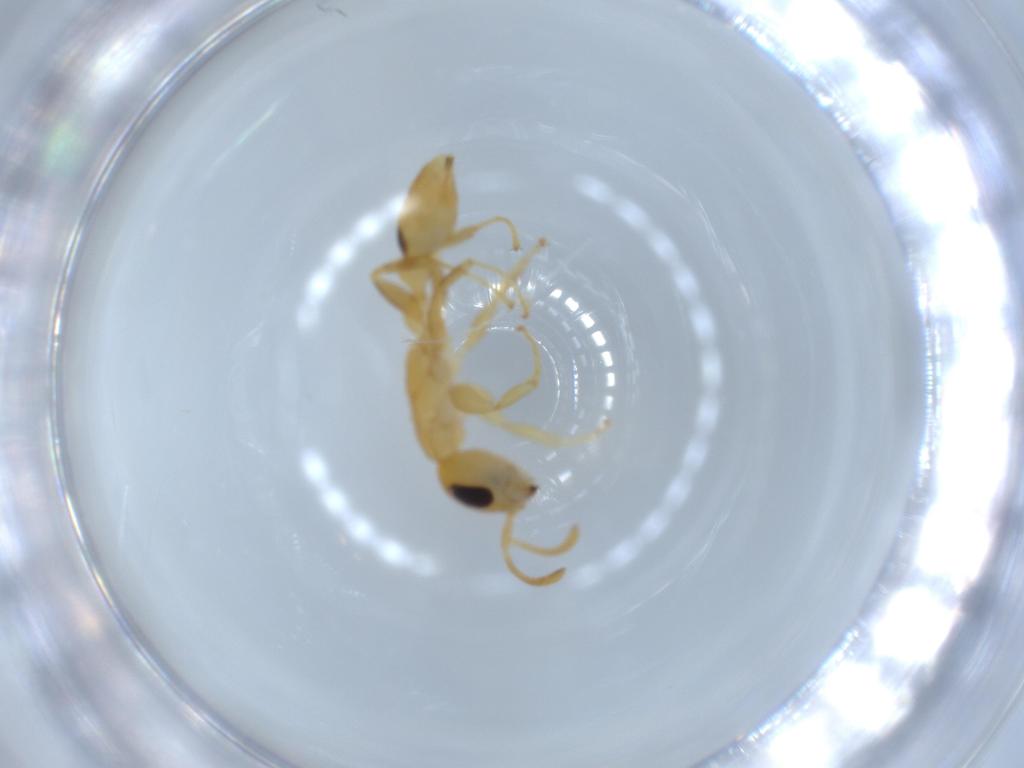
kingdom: Animalia
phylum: Arthropoda
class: Insecta
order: Hymenoptera
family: Formicidae
